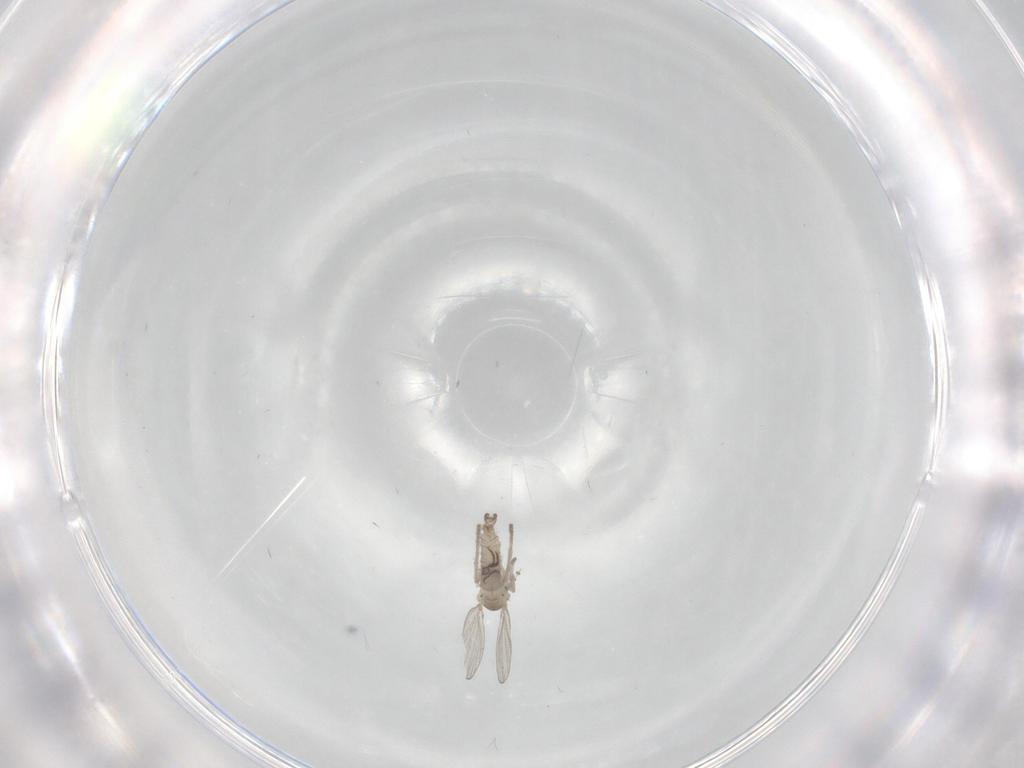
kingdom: Animalia
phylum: Arthropoda
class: Insecta
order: Diptera
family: Psychodidae
